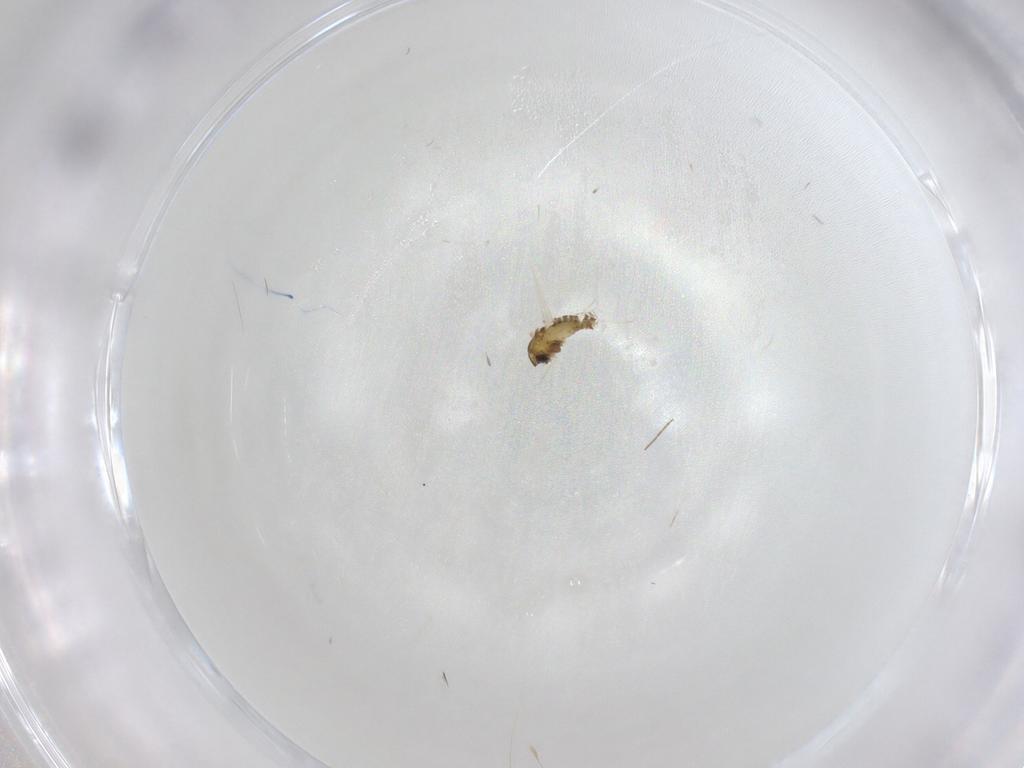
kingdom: Animalia
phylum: Arthropoda
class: Insecta
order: Diptera
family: Chironomidae
